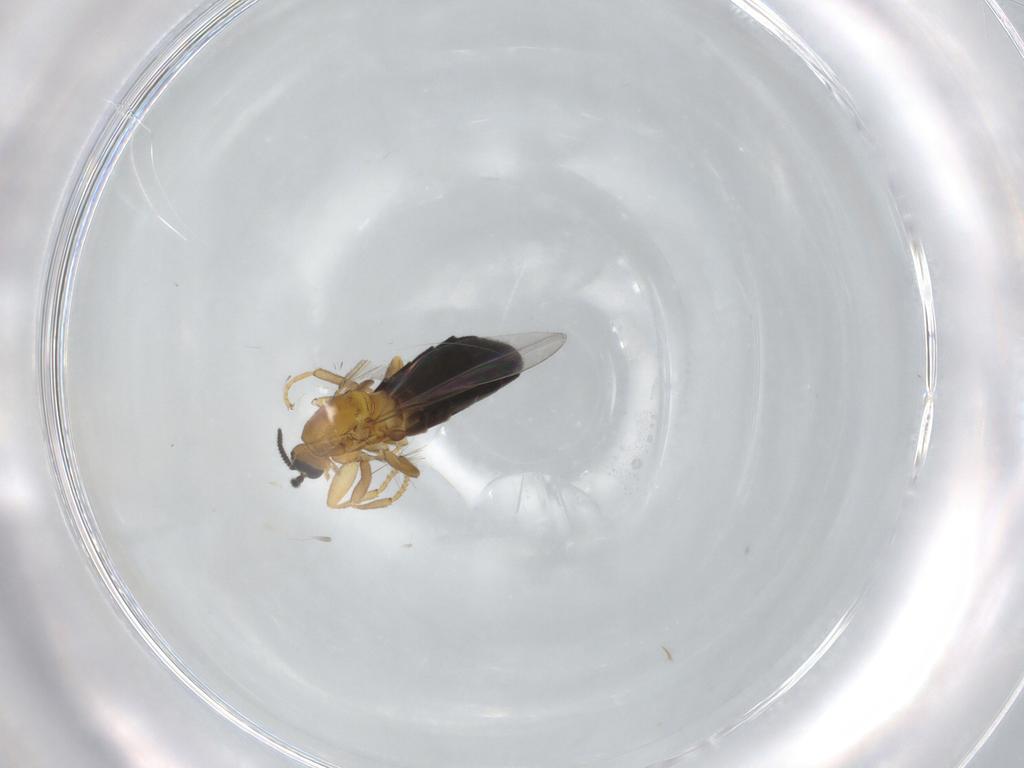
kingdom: Animalia
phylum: Arthropoda
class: Insecta
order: Diptera
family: Scatopsidae
